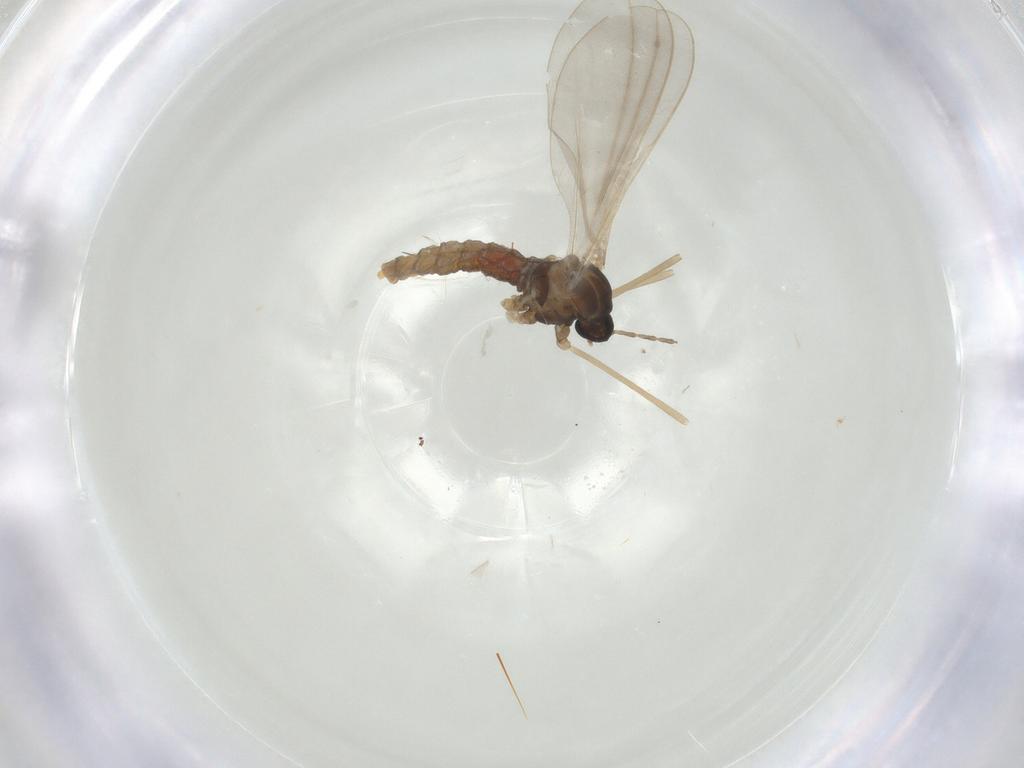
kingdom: Animalia
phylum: Arthropoda
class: Insecta
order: Diptera
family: Cecidomyiidae
